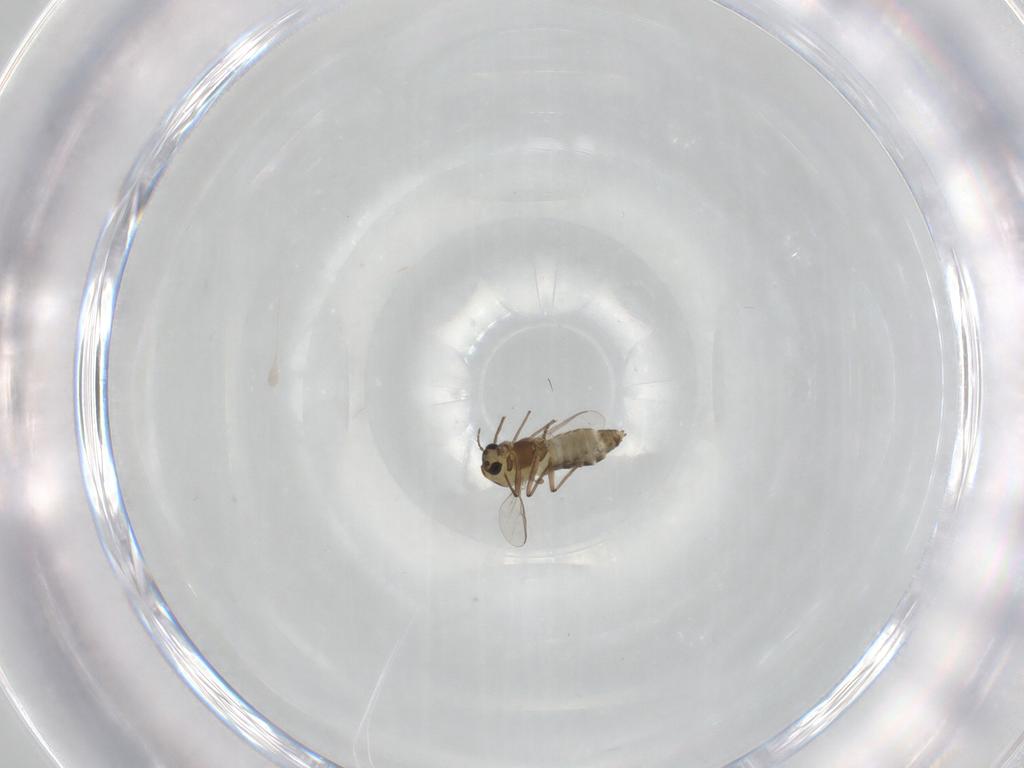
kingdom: Animalia
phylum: Arthropoda
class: Insecta
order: Diptera
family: Chironomidae
